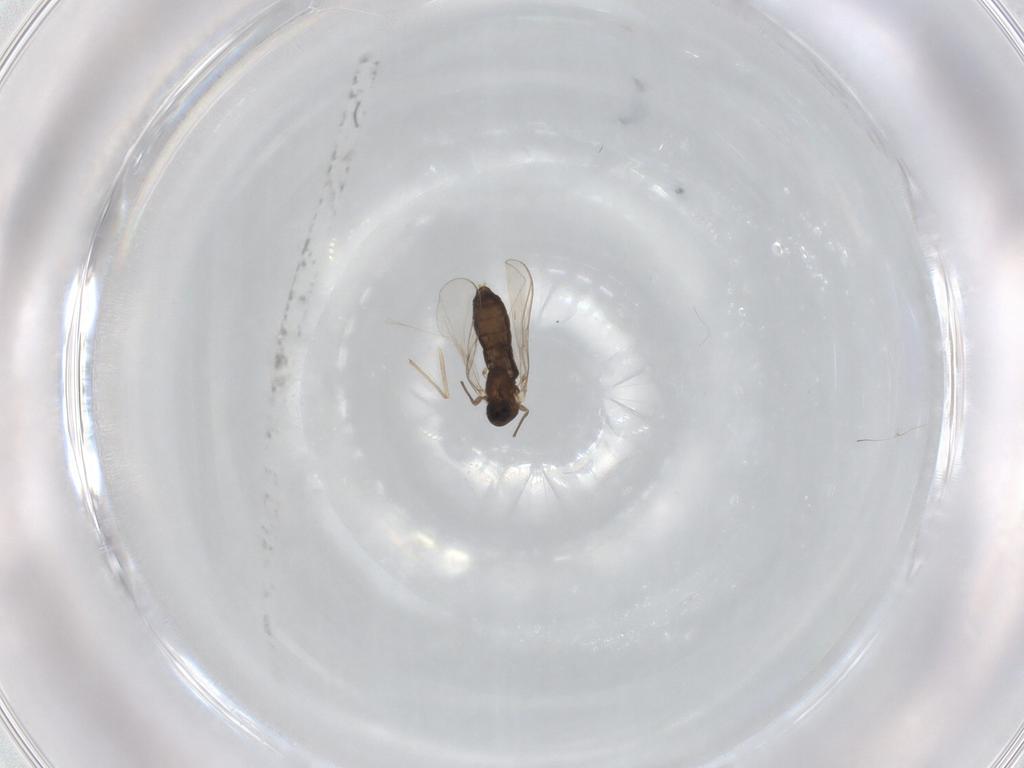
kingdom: Animalia
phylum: Arthropoda
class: Insecta
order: Diptera
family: Chironomidae
